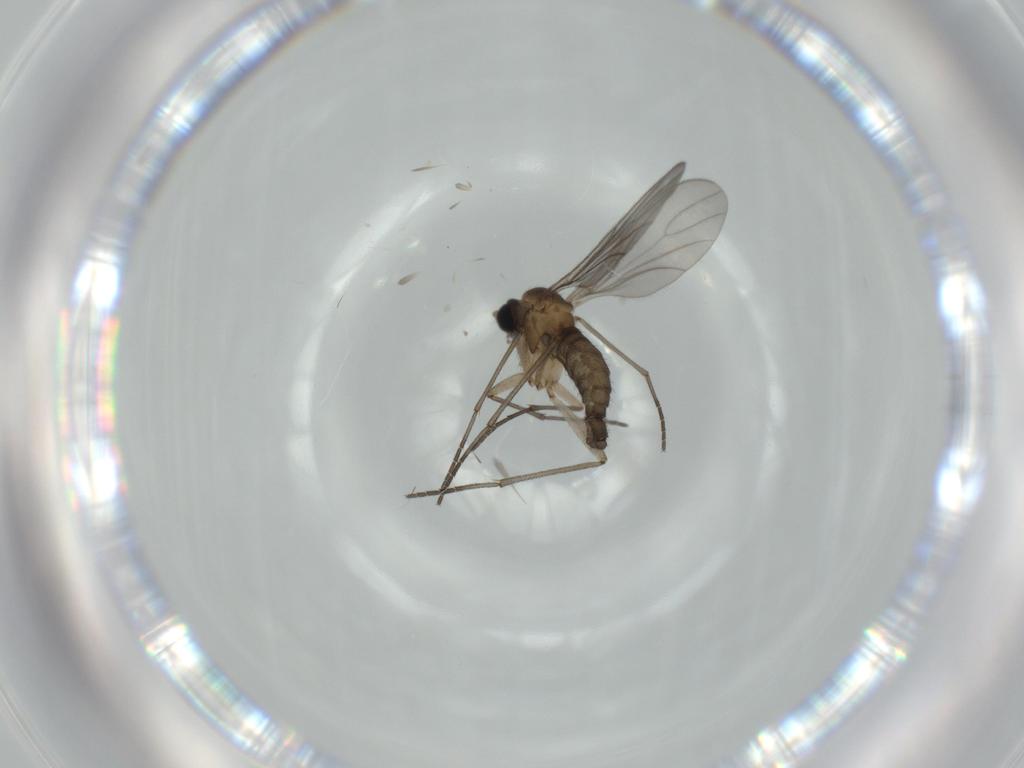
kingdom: Animalia
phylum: Arthropoda
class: Insecta
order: Diptera
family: Sciaridae
